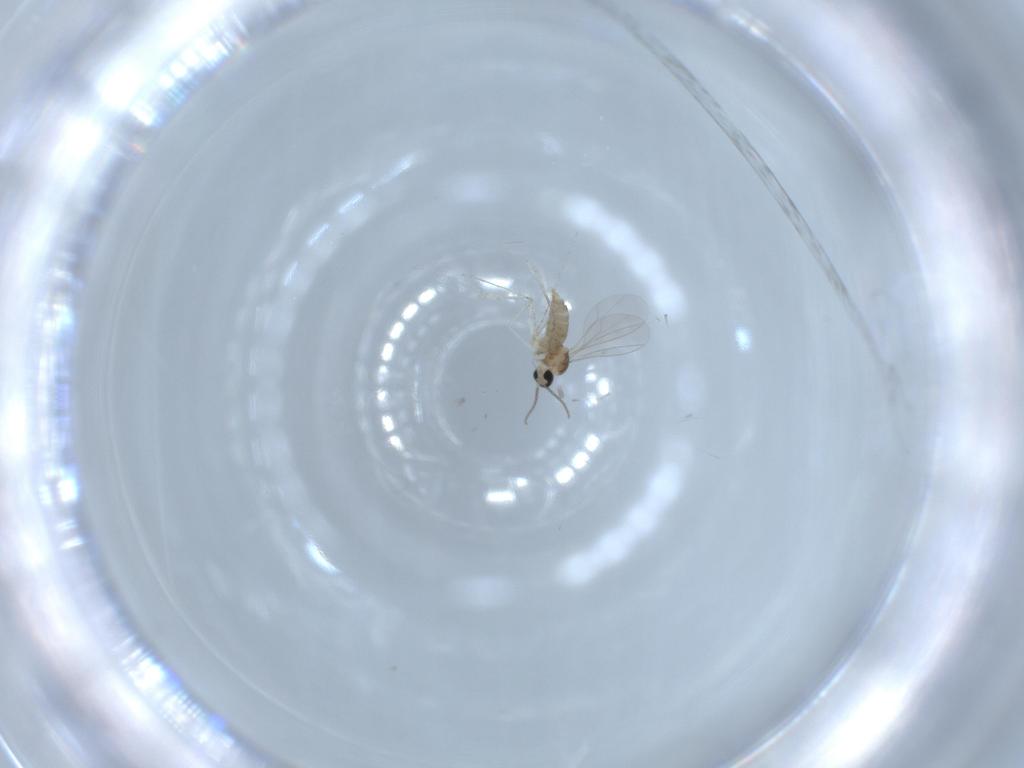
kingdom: Animalia
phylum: Arthropoda
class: Insecta
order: Diptera
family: Cecidomyiidae
